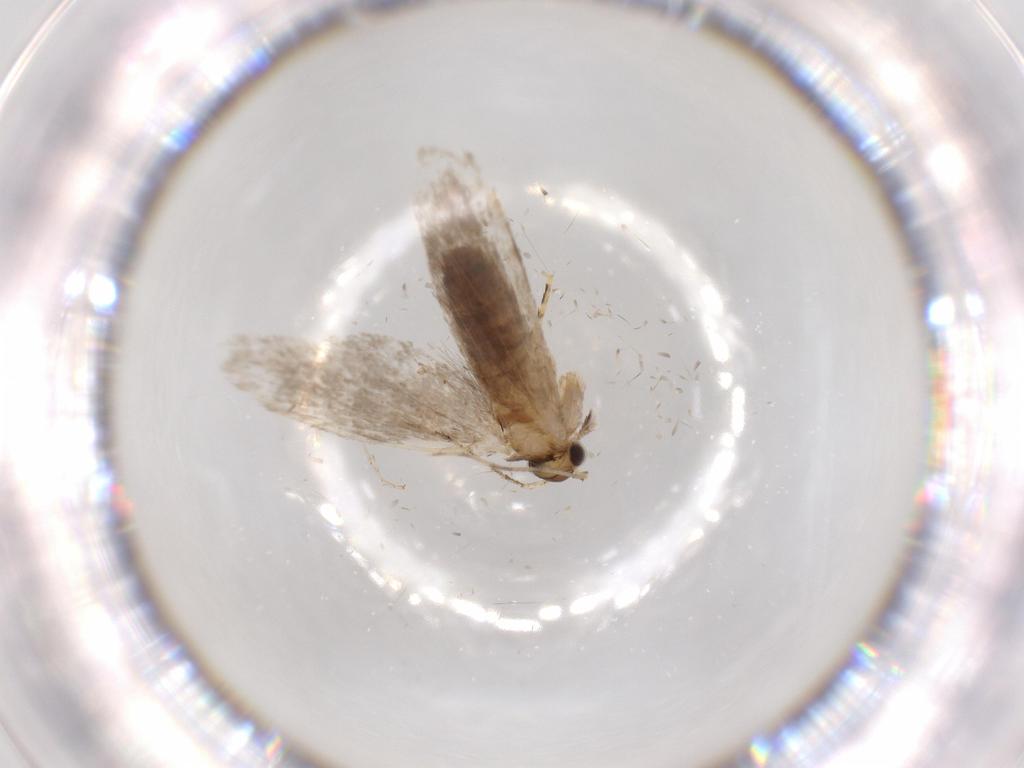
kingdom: Animalia
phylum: Arthropoda
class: Insecta
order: Lepidoptera
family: Tineidae
